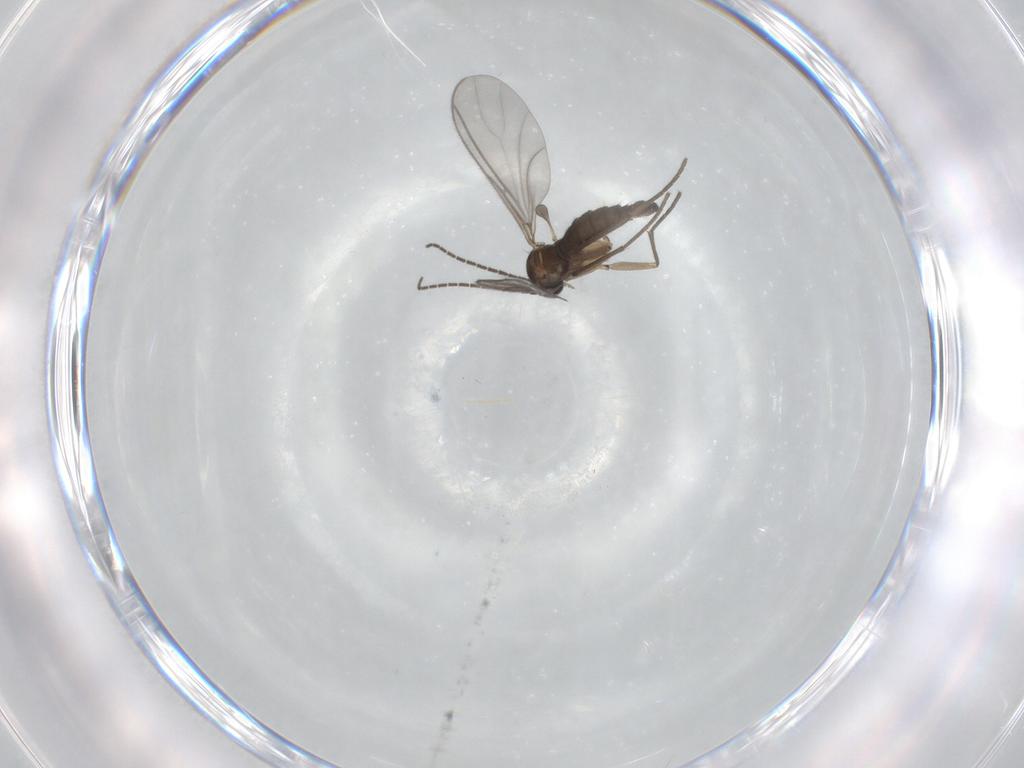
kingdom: Animalia
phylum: Arthropoda
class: Insecta
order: Diptera
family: Sciaridae
